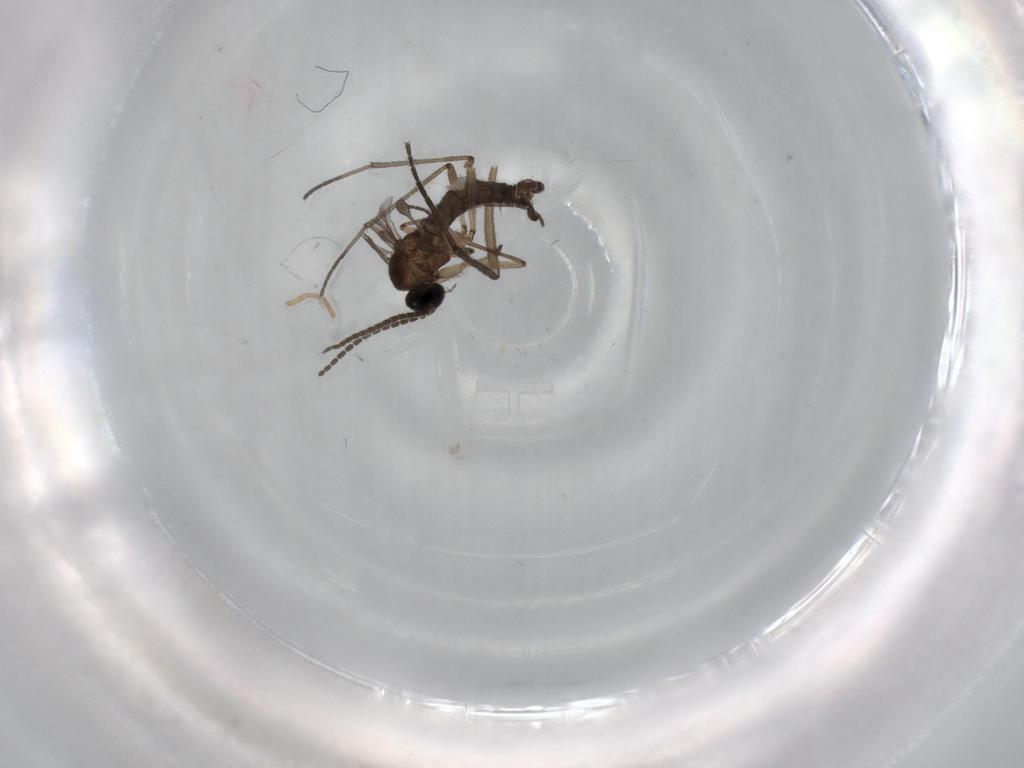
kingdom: Animalia
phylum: Arthropoda
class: Insecta
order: Diptera
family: Sciaridae
